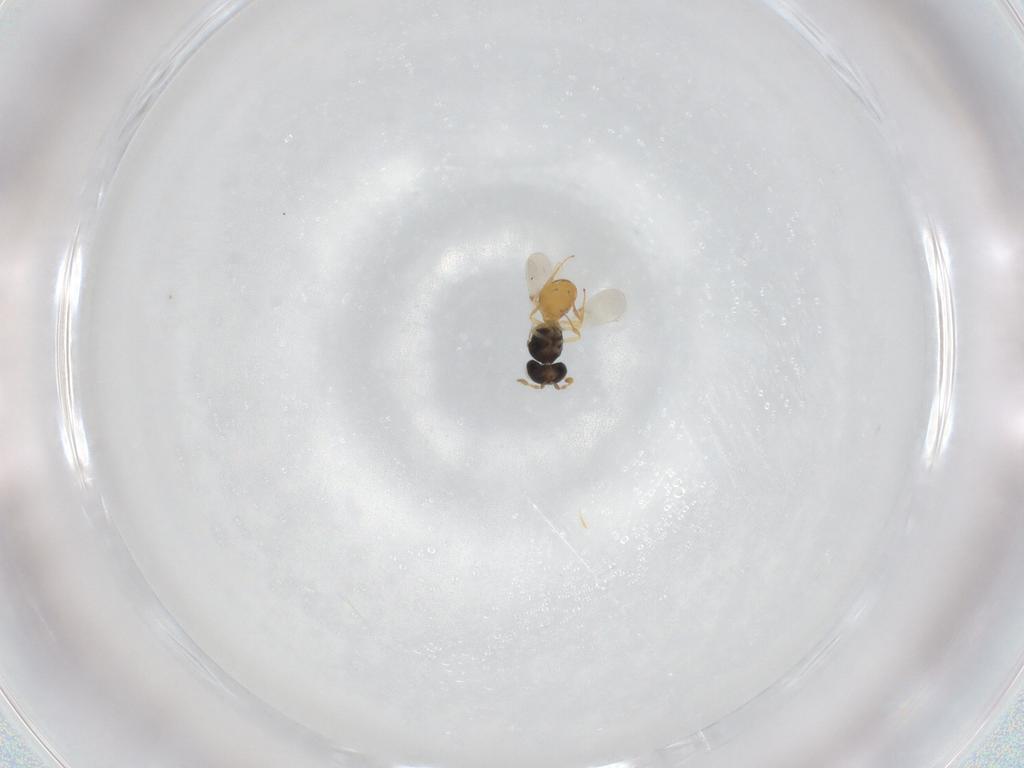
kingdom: Animalia
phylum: Arthropoda
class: Insecta
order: Hymenoptera
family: Scelionidae
